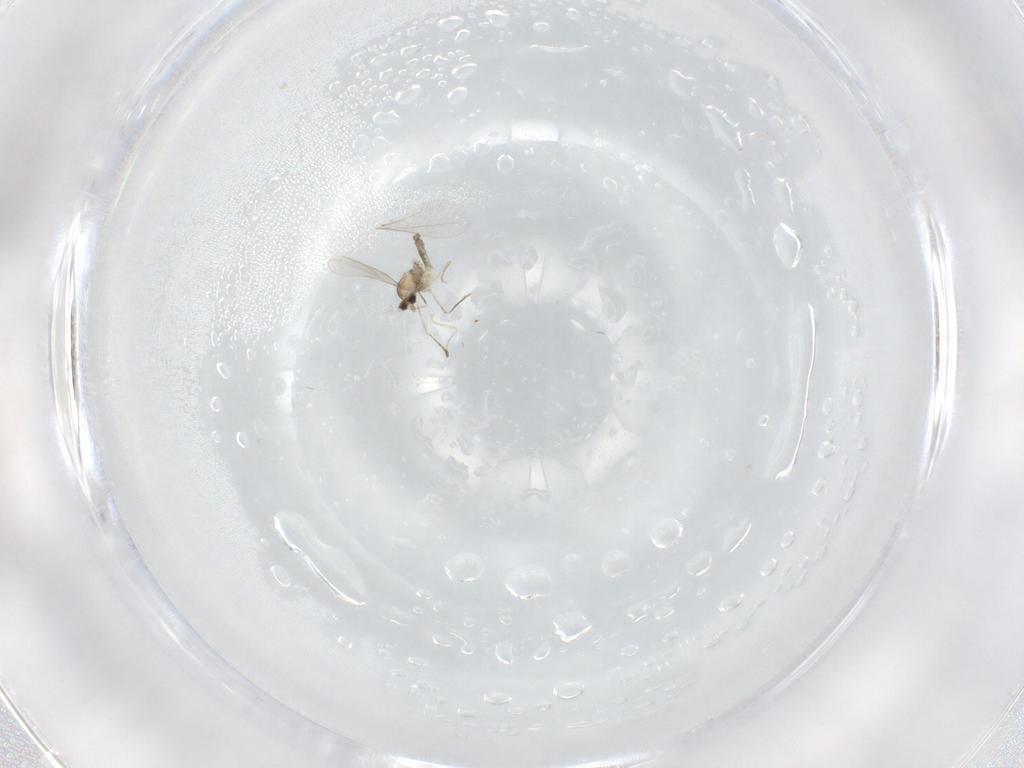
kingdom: Animalia
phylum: Arthropoda
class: Insecta
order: Diptera
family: Cecidomyiidae
